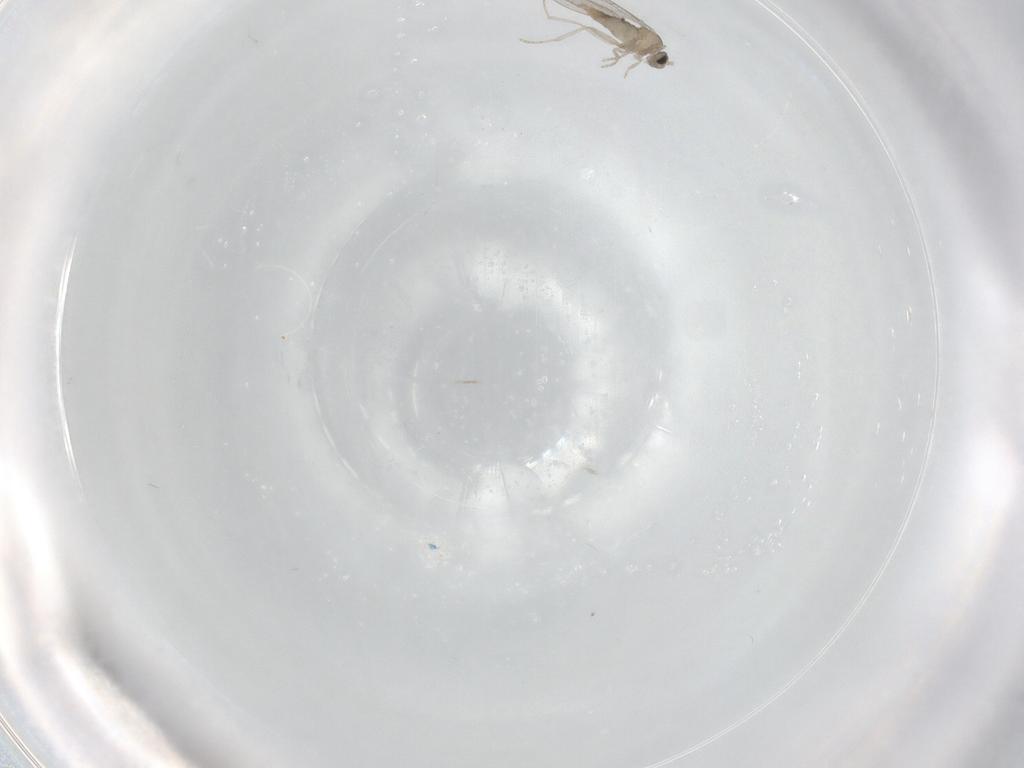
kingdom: Animalia
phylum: Arthropoda
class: Insecta
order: Diptera
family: Cecidomyiidae
